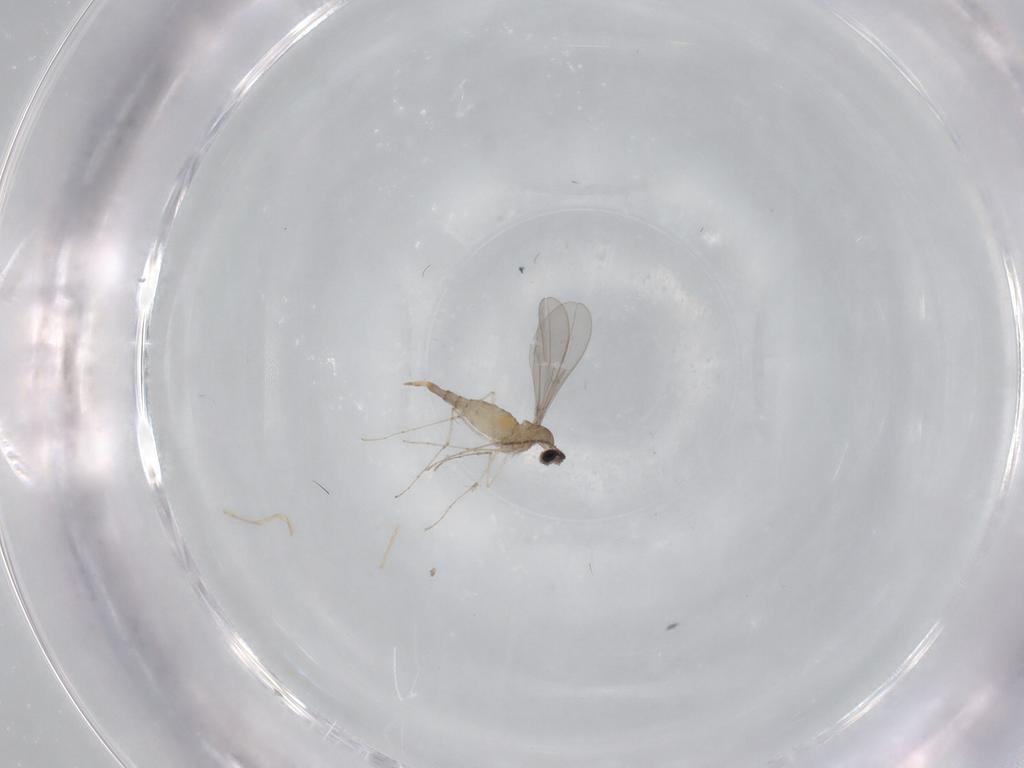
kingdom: Animalia
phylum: Arthropoda
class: Insecta
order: Diptera
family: Cecidomyiidae
